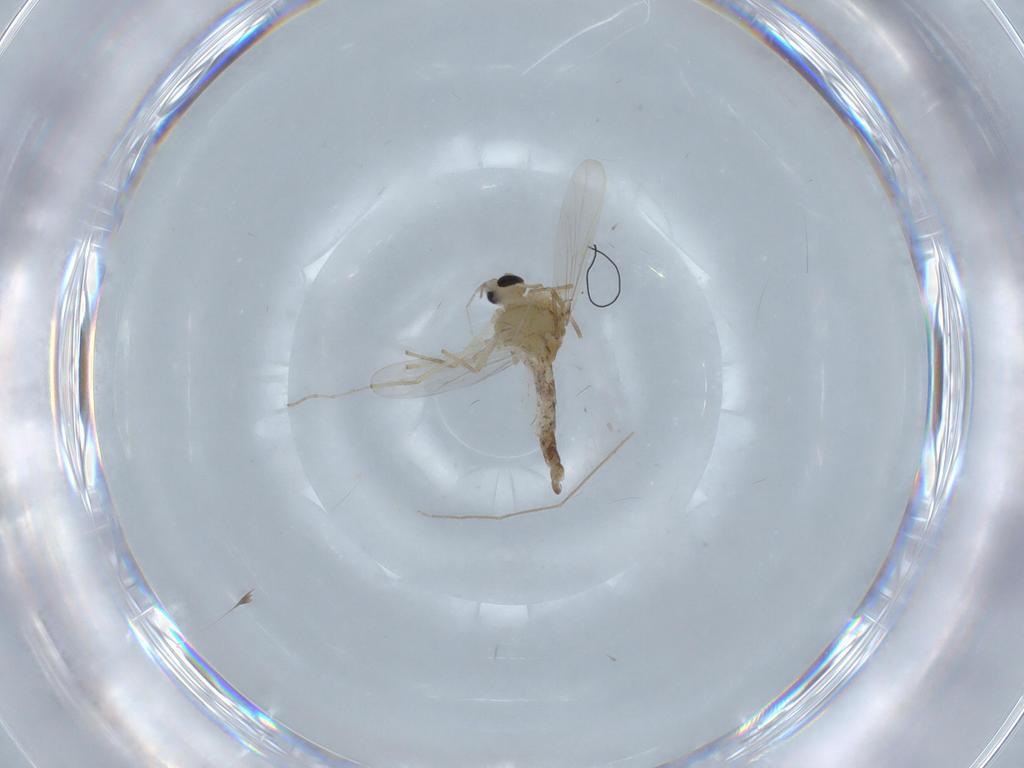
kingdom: Animalia
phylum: Arthropoda
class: Insecta
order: Diptera
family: Chironomidae
